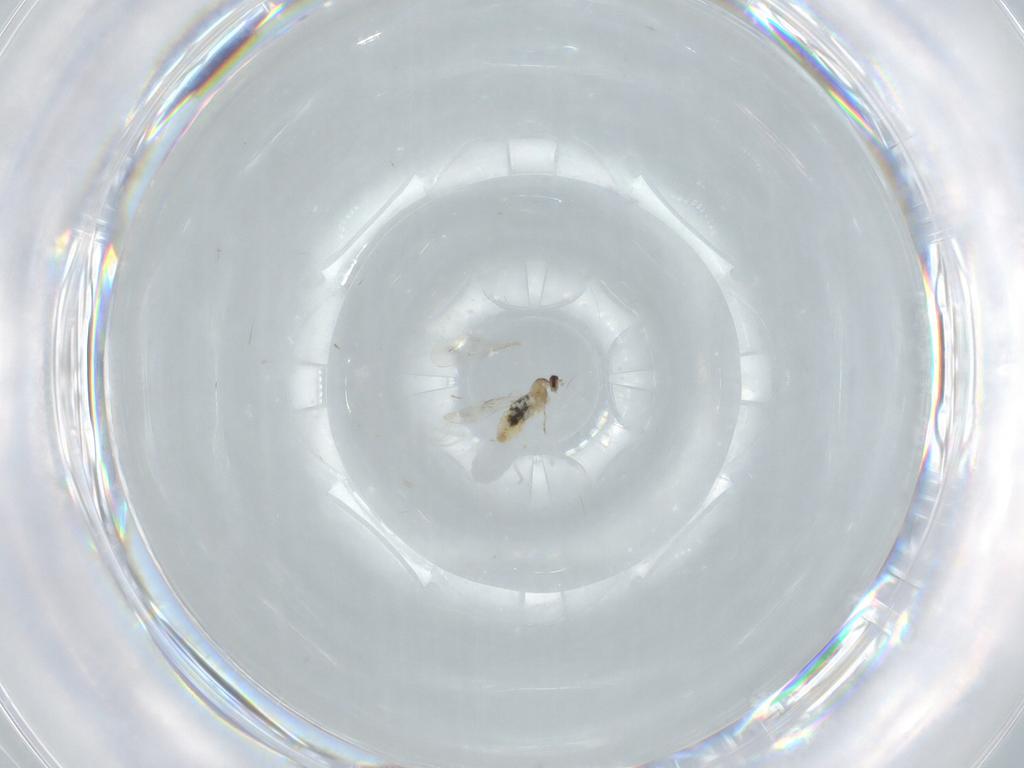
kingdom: Animalia
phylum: Arthropoda
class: Insecta
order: Diptera
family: Cecidomyiidae
